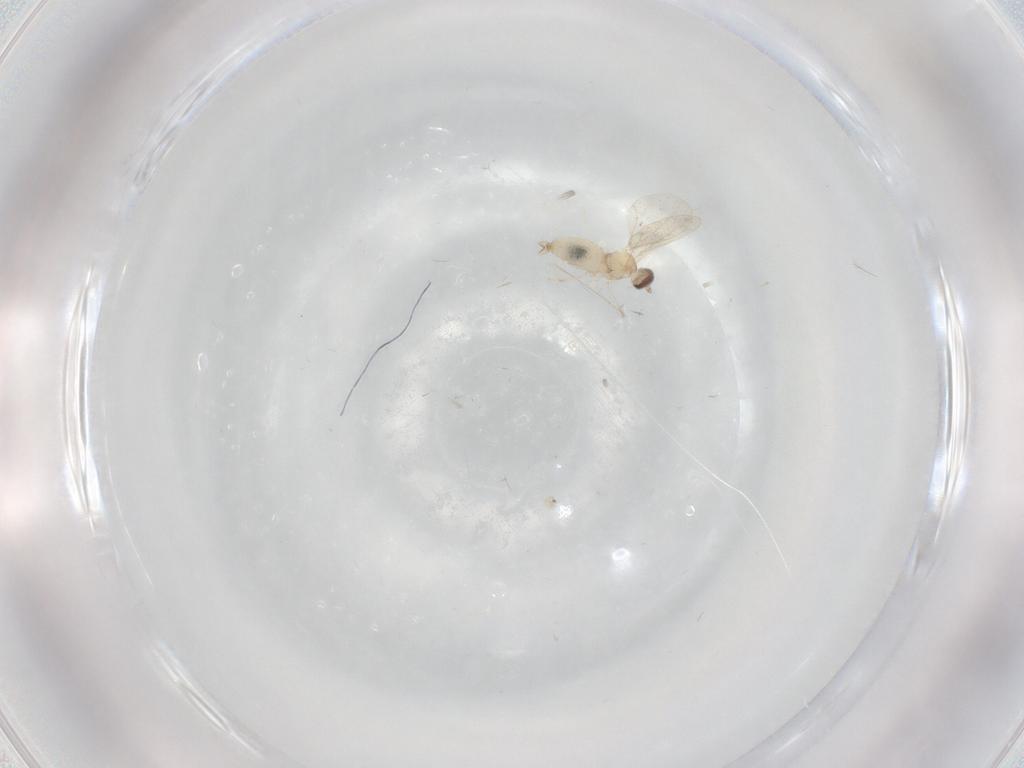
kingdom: Animalia
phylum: Arthropoda
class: Insecta
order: Diptera
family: Cecidomyiidae
